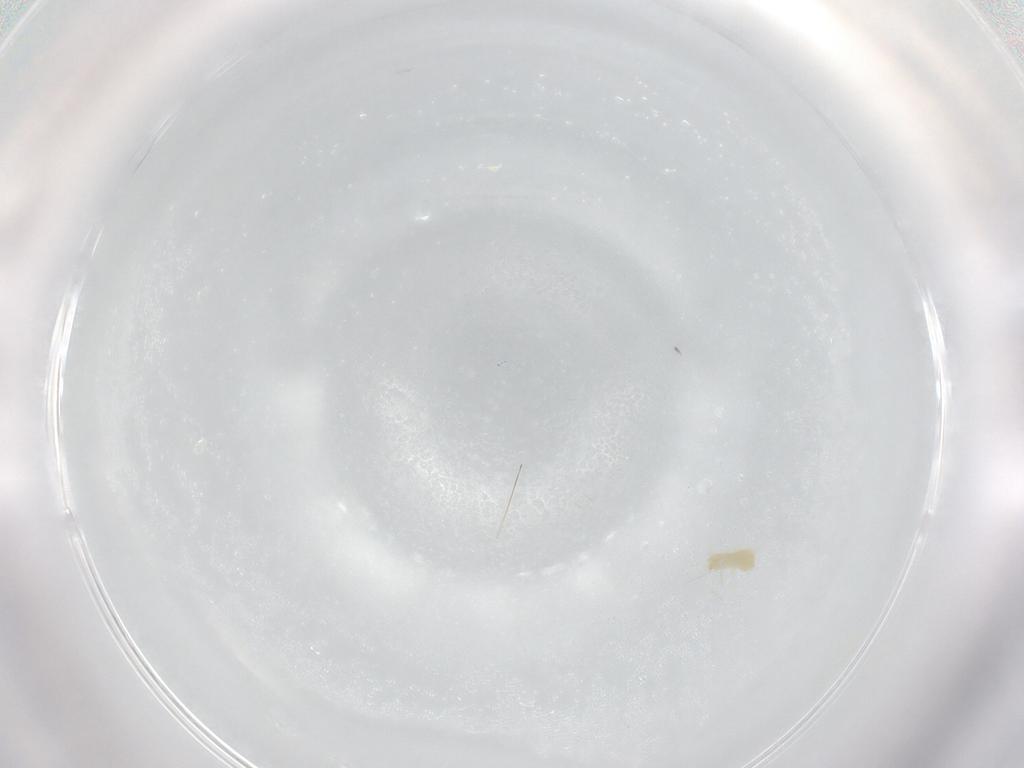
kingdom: Animalia
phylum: Arthropoda
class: Arachnida
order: Trombidiformes
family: Tetranychidae
